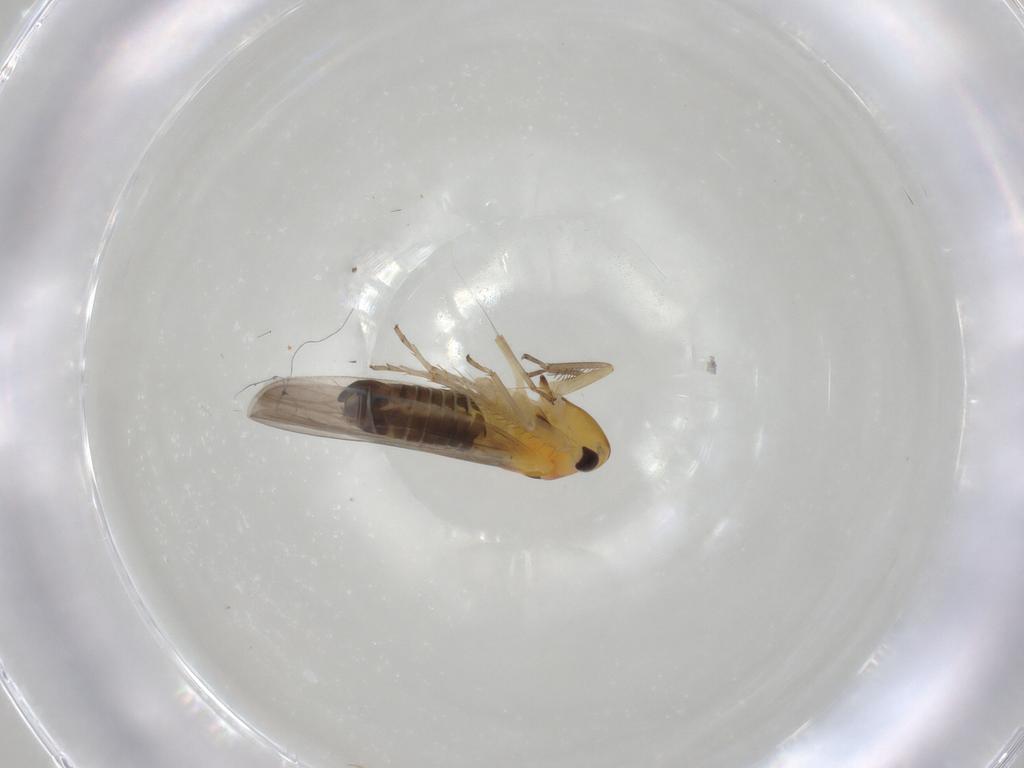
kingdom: Animalia
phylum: Arthropoda
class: Insecta
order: Hemiptera
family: Cicadellidae
